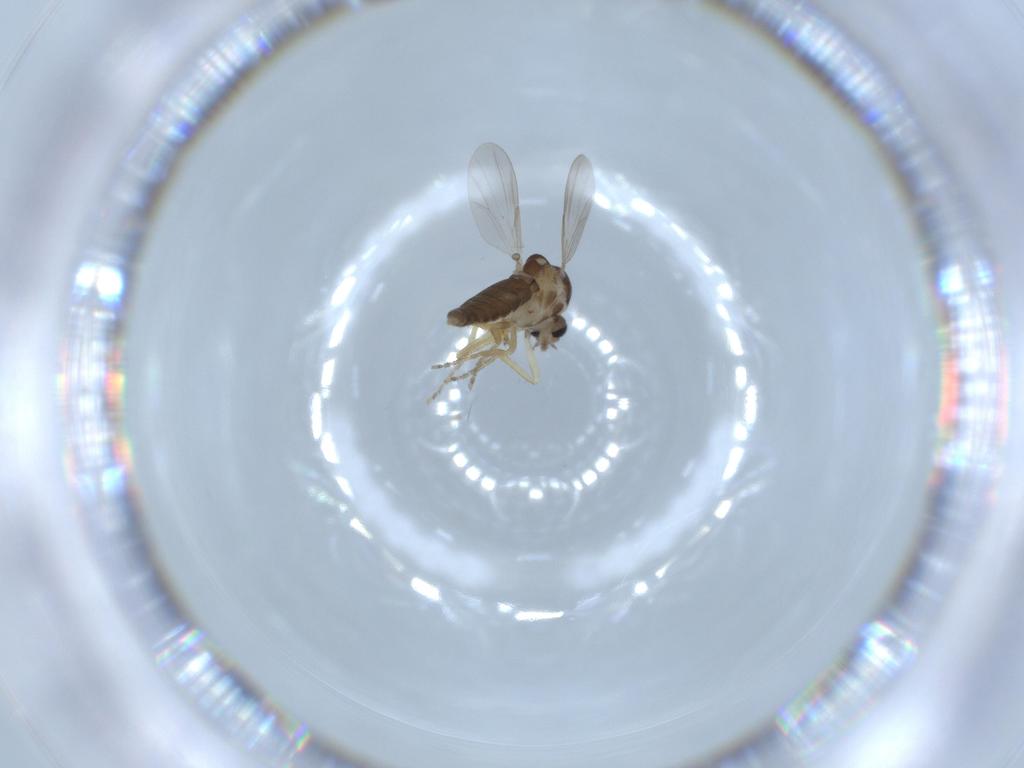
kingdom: Animalia
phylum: Arthropoda
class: Insecta
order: Diptera
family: Ceratopogonidae
